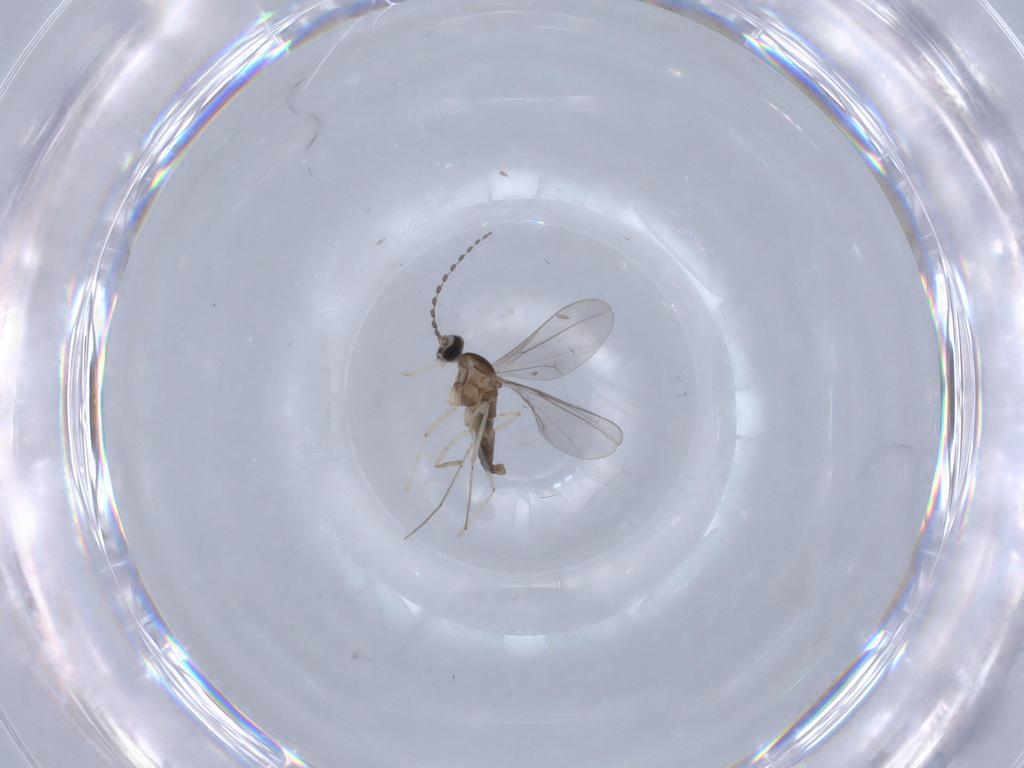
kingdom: Animalia
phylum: Arthropoda
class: Insecta
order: Diptera
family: Cecidomyiidae
